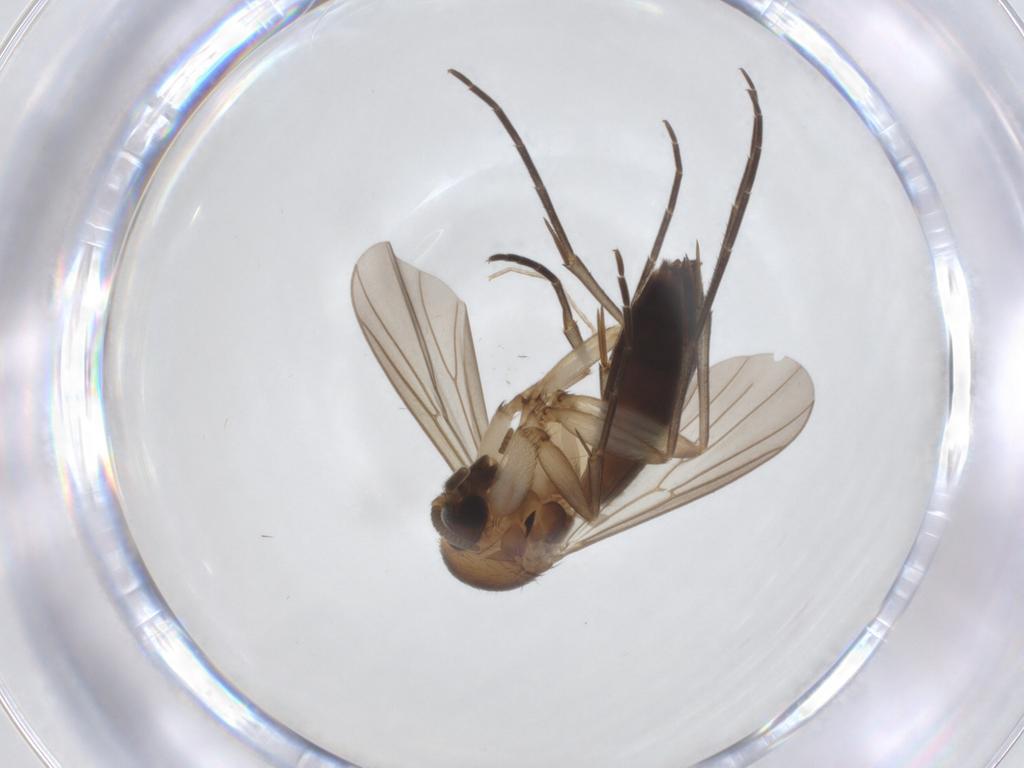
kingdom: Animalia
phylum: Arthropoda
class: Insecta
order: Diptera
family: Mycetophilidae
